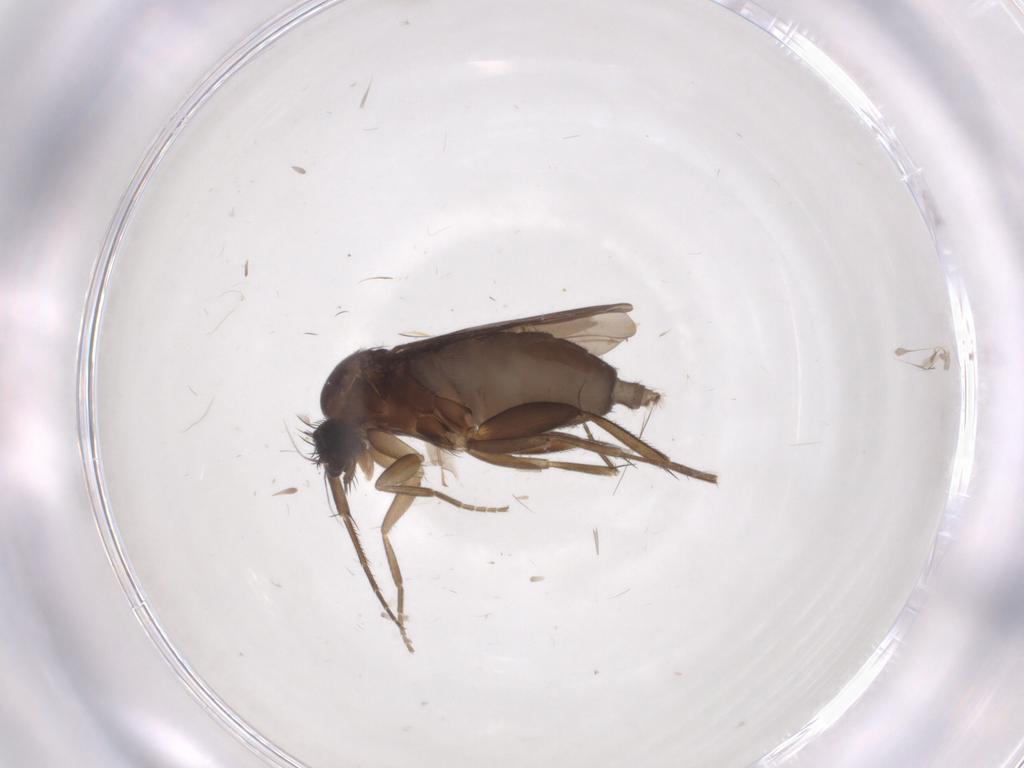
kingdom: Animalia
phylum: Arthropoda
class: Insecta
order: Diptera
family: Phoridae
